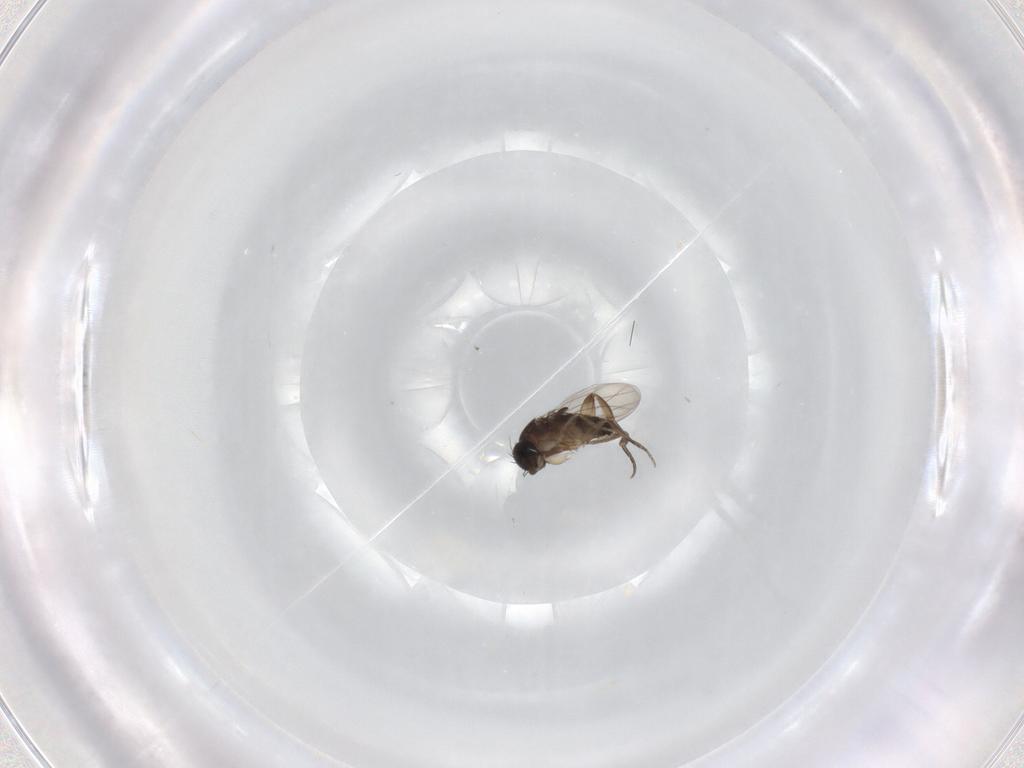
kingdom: Animalia
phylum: Arthropoda
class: Insecta
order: Diptera
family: Phoridae
